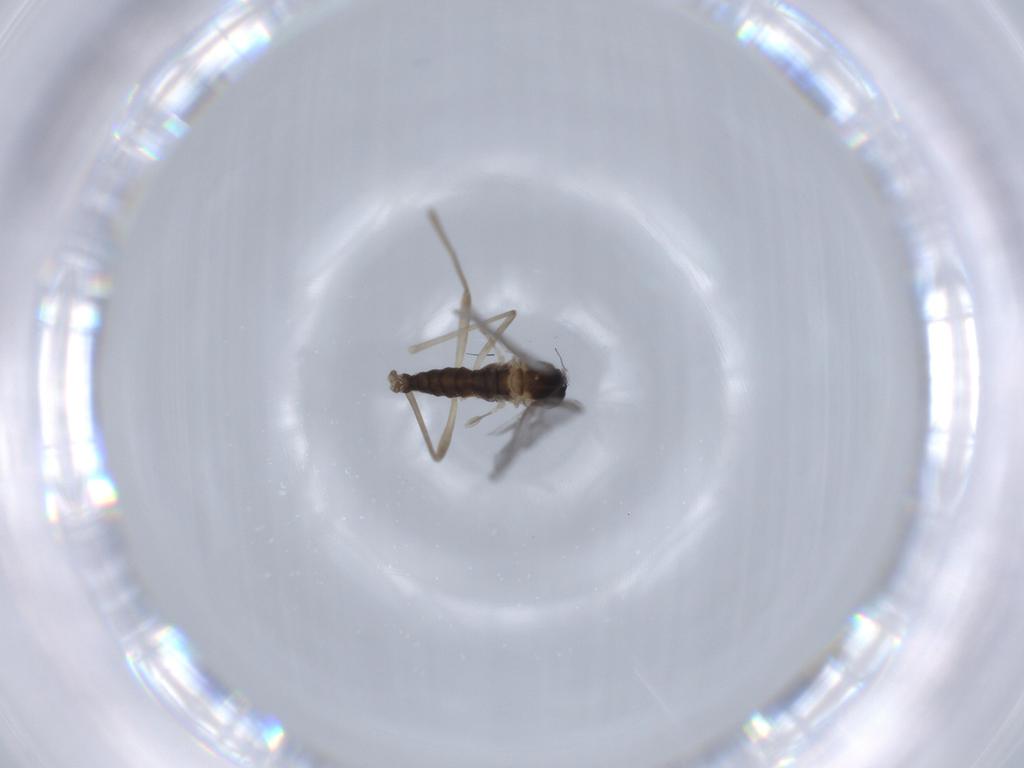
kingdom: Animalia
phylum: Arthropoda
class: Insecta
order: Diptera
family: Cecidomyiidae
